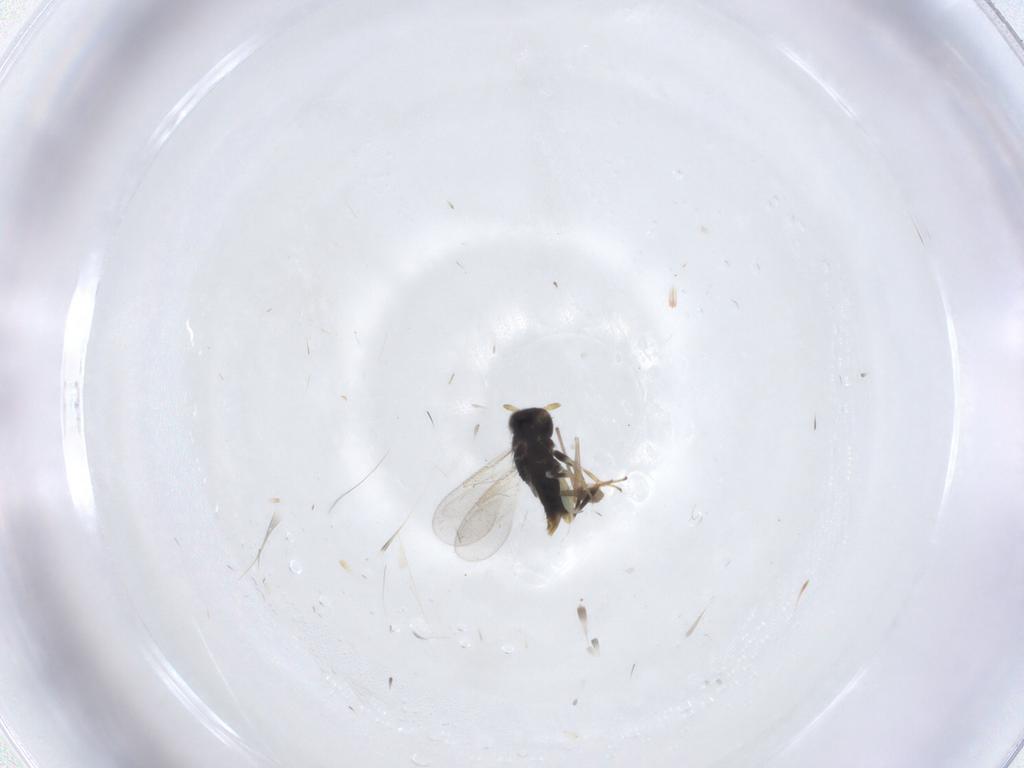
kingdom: Animalia
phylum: Arthropoda
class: Insecta
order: Hymenoptera
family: Aphelinidae
